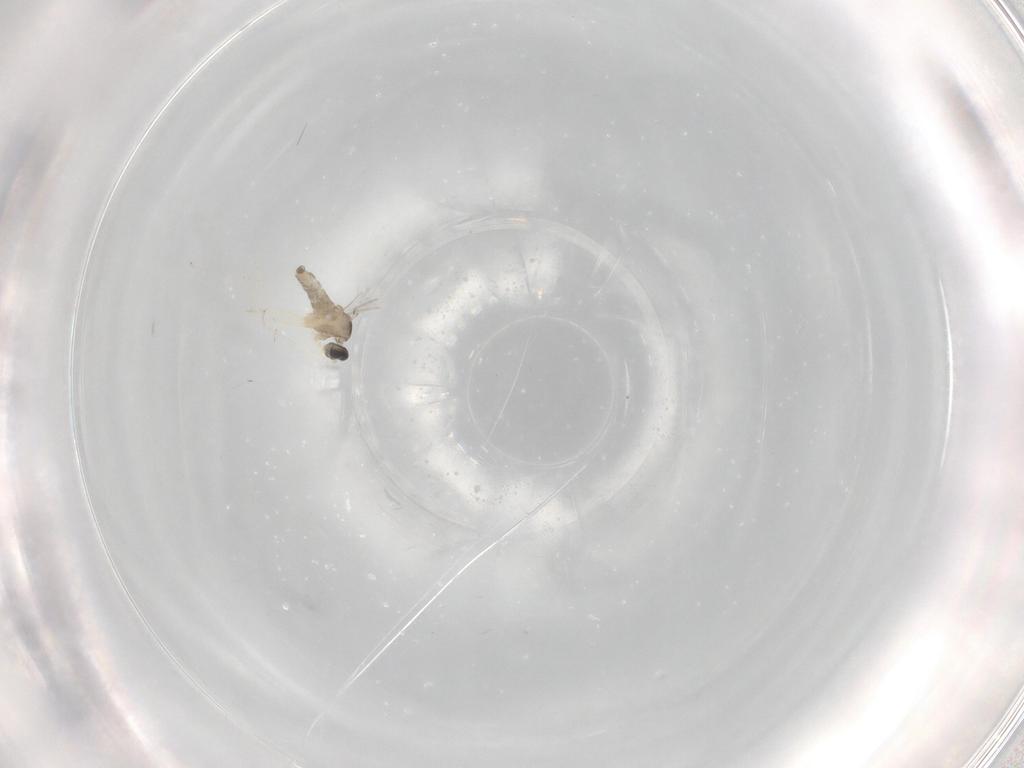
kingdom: Animalia
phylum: Arthropoda
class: Insecta
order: Diptera
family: Cecidomyiidae
